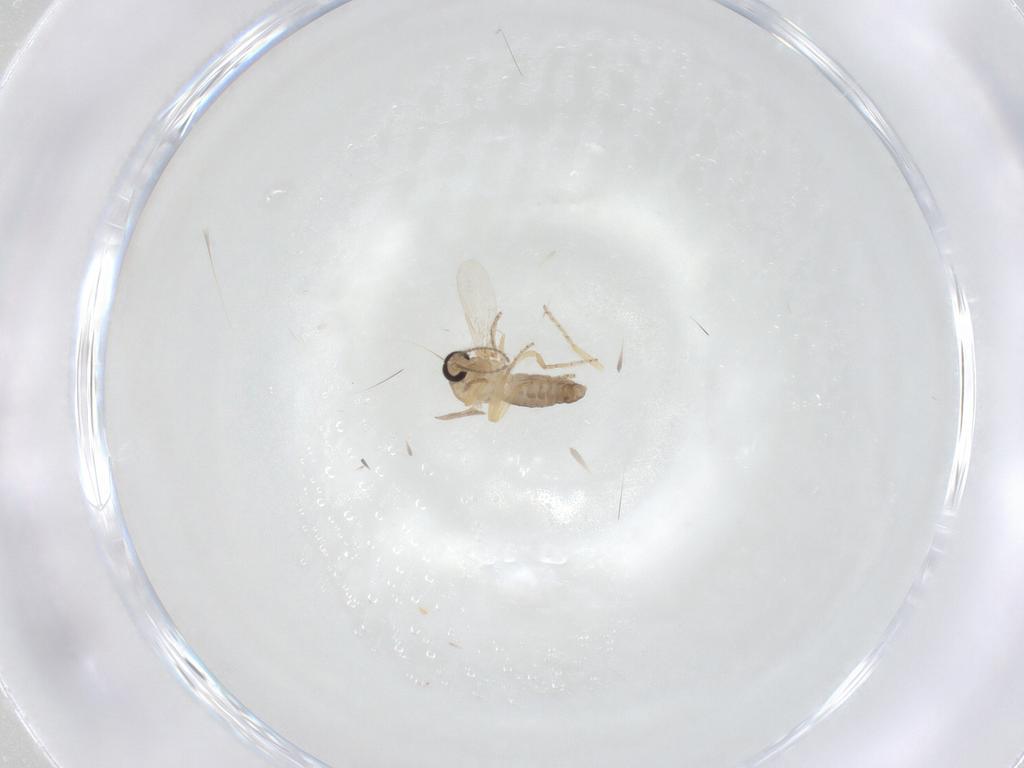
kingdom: Animalia
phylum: Arthropoda
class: Insecta
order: Diptera
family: Ceratopogonidae
